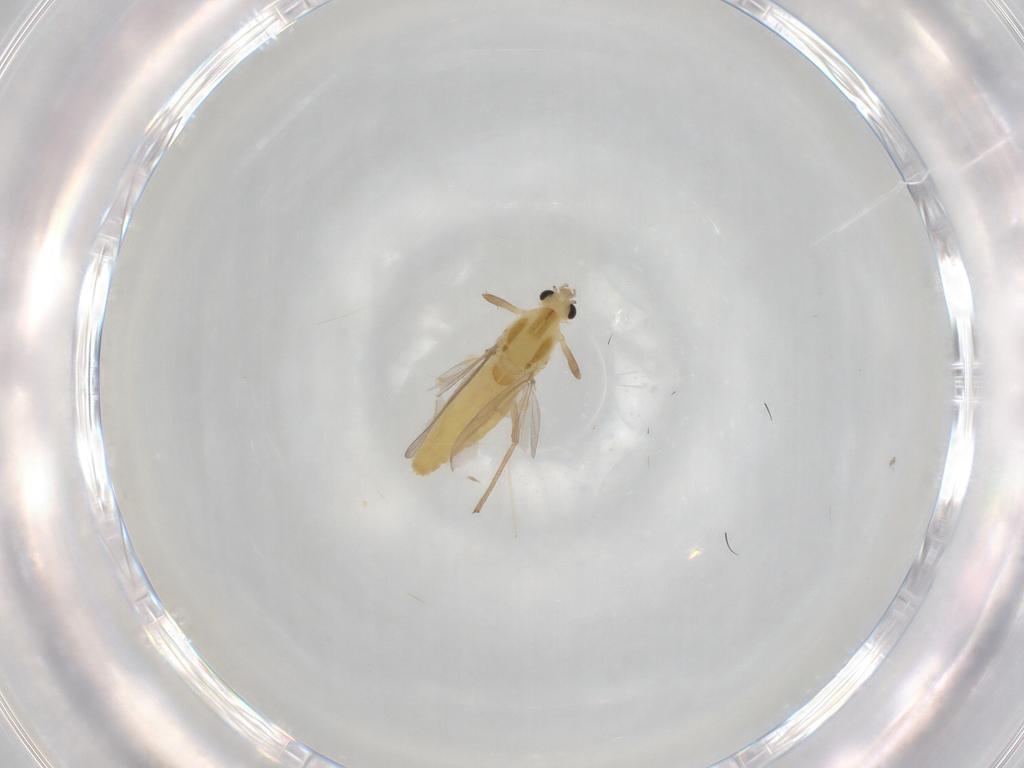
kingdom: Animalia
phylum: Arthropoda
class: Insecta
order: Diptera
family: Chironomidae
